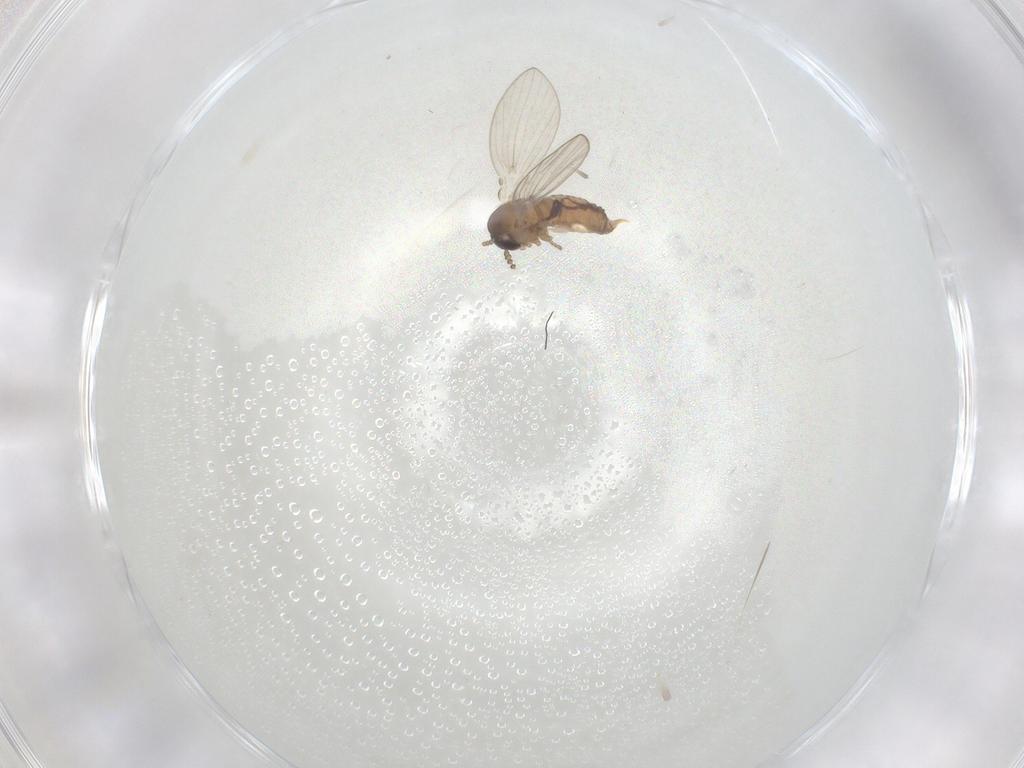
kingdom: Animalia
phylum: Arthropoda
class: Insecta
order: Diptera
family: Psychodidae
